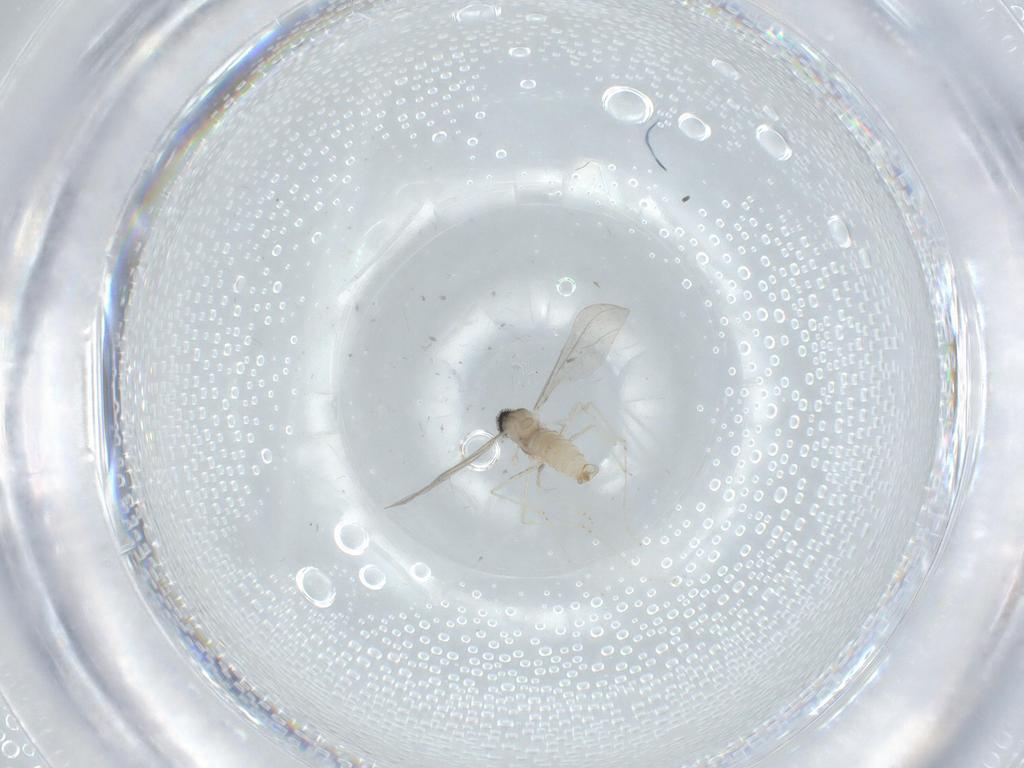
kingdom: Animalia
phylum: Arthropoda
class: Insecta
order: Diptera
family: Cecidomyiidae
